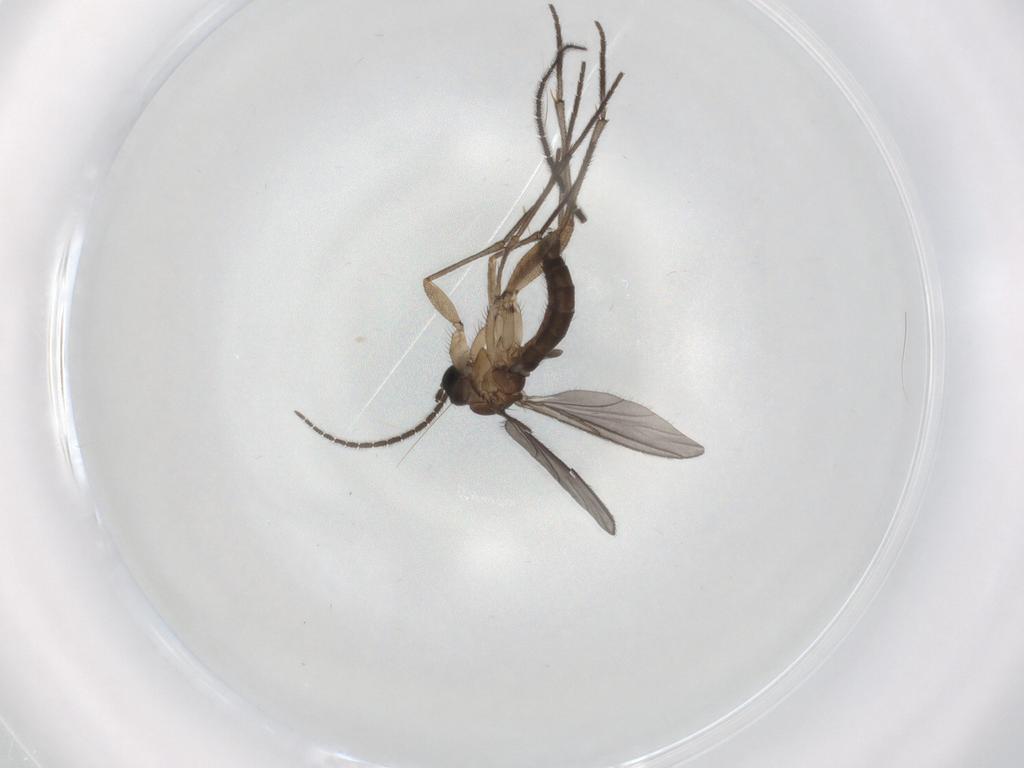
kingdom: Animalia
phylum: Arthropoda
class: Insecta
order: Diptera
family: Cecidomyiidae
